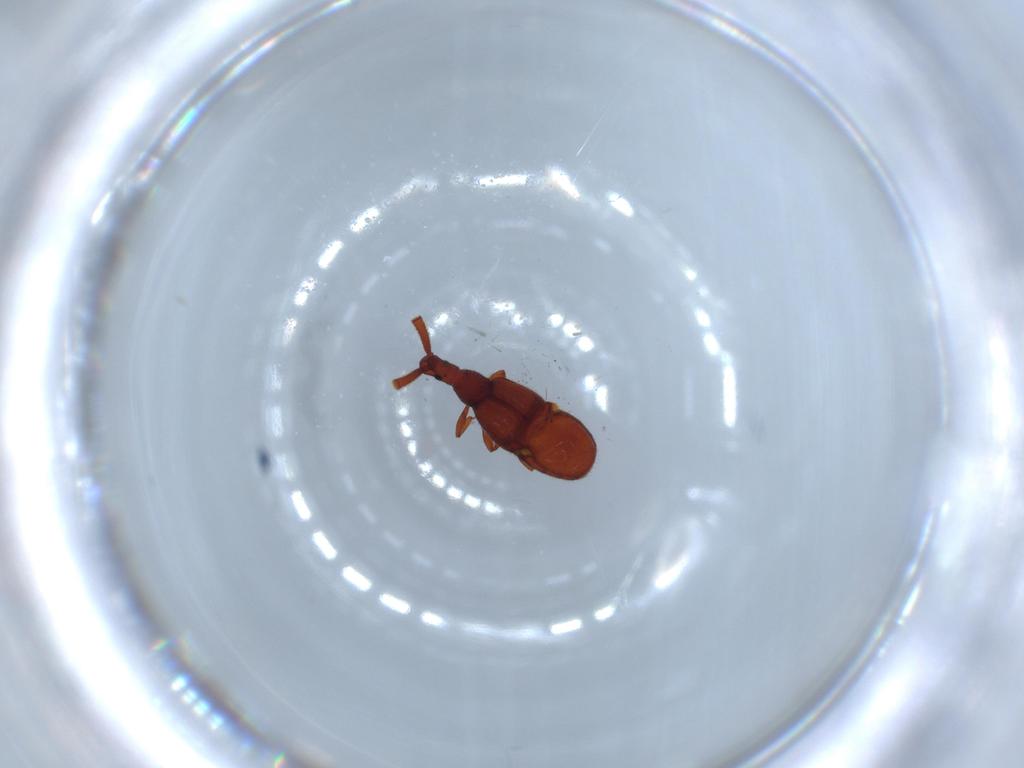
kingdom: Animalia
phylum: Arthropoda
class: Insecta
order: Coleoptera
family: Staphylinidae
